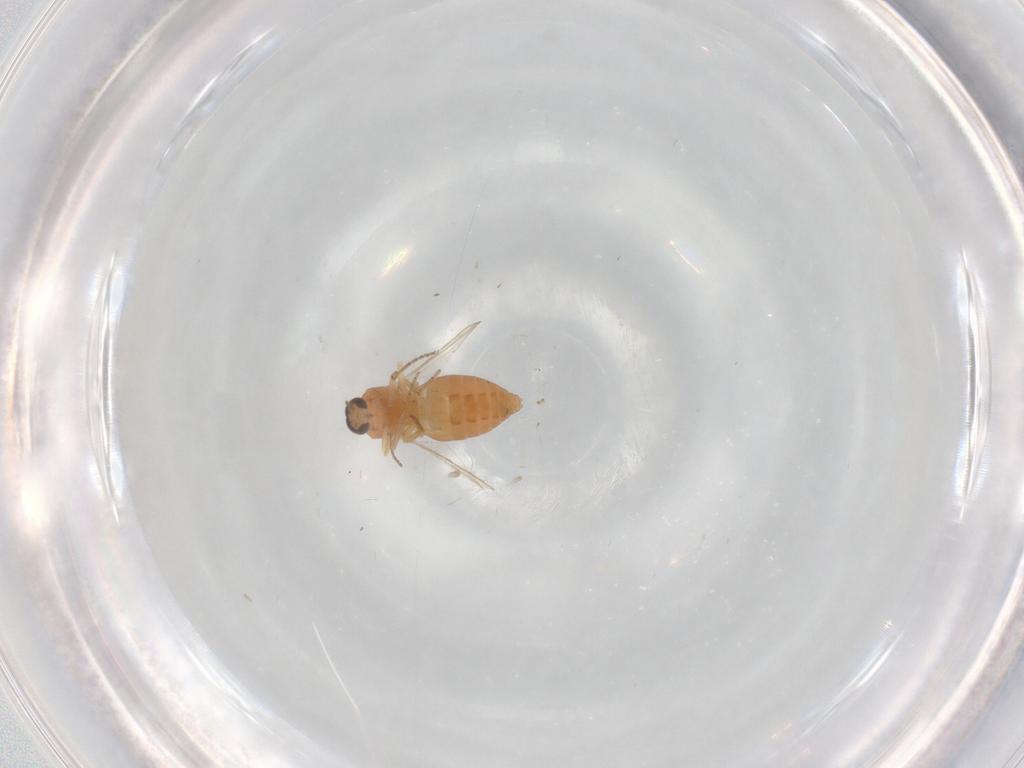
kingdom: Animalia
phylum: Arthropoda
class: Insecta
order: Diptera
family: Ceratopogonidae
